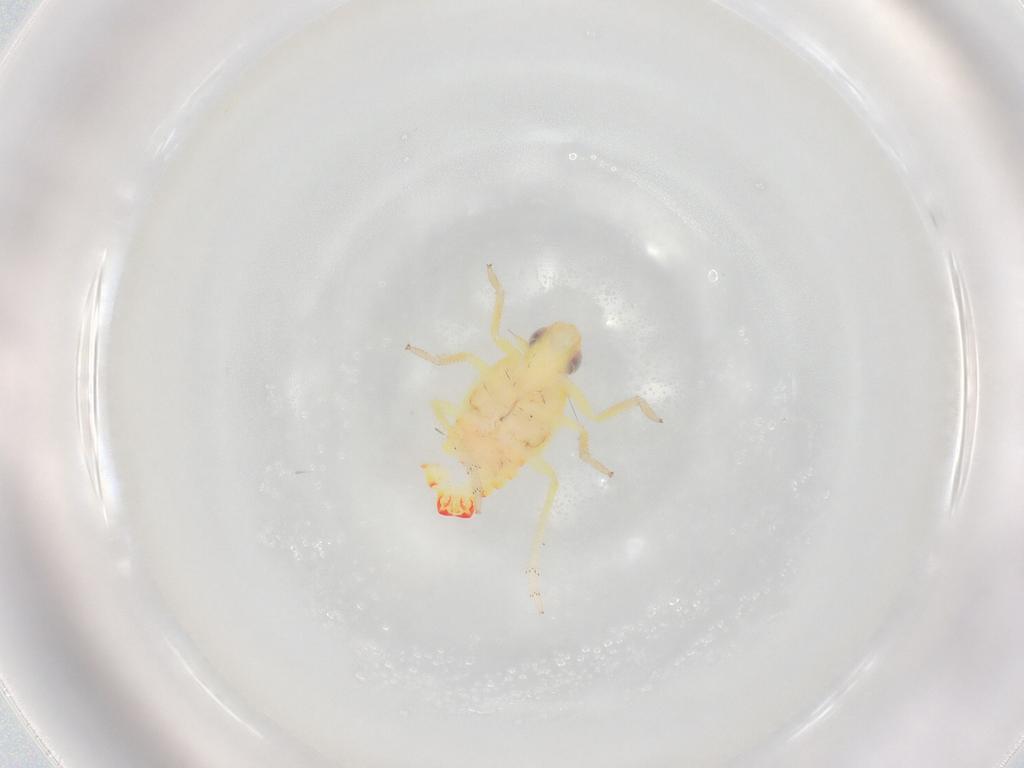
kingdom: Animalia
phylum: Arthropoda
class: Insecta
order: Hemiptera
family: Tropiduchidae
